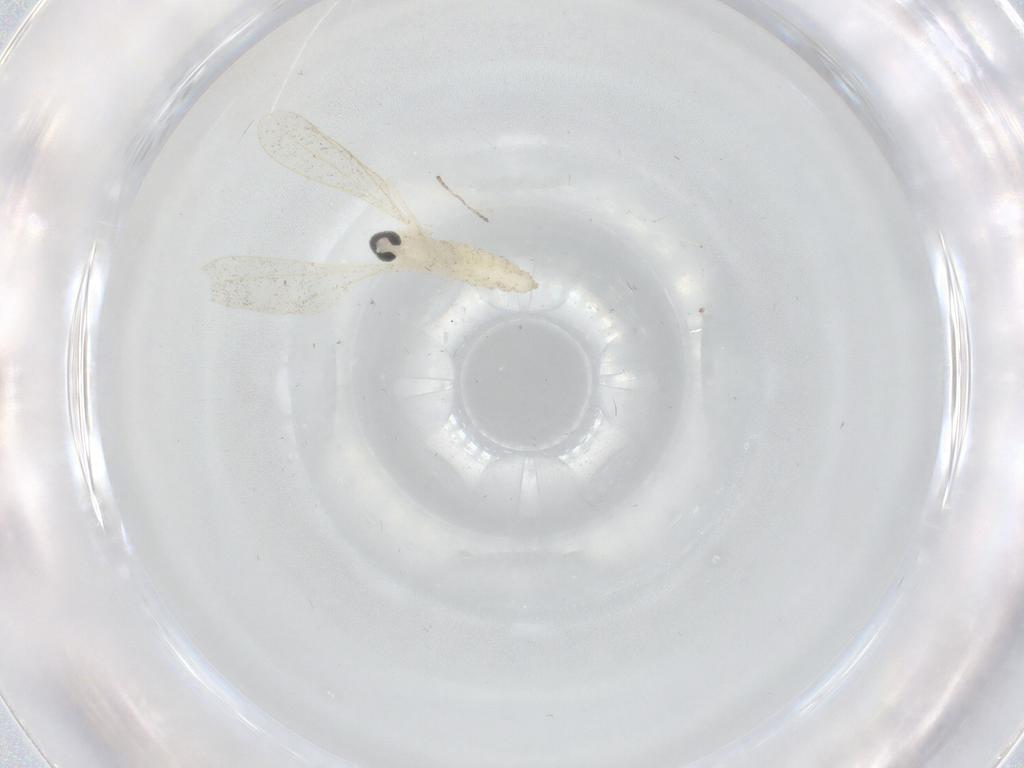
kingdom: Animalia
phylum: Arthropoda
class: Insecta
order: Diptera
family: Cecidomyiidae
